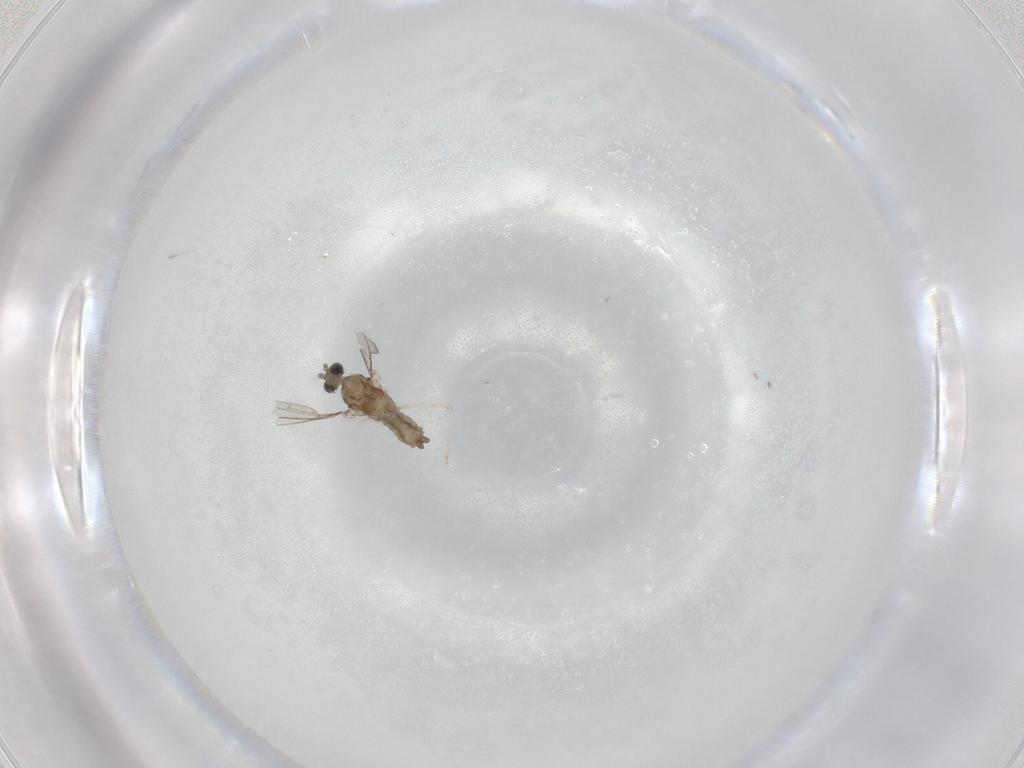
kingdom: Animalia
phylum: Arthropoda
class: Insecta
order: Diptera
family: Cecidomyiidae
